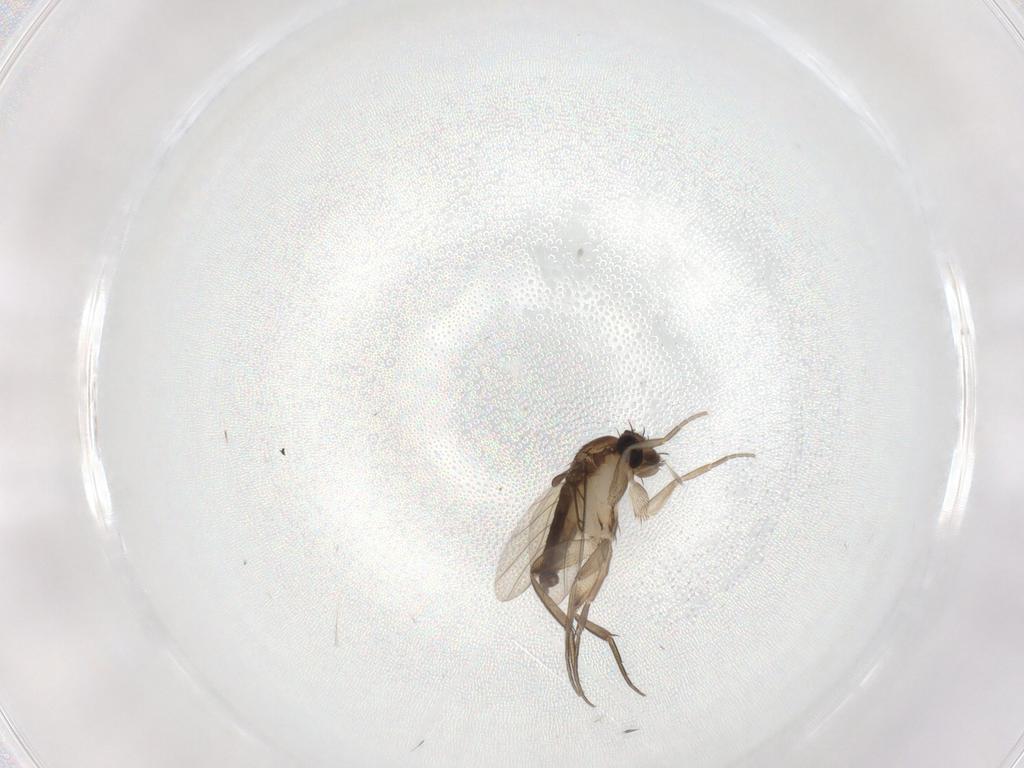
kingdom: Animalia
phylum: Arthropoda
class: Insecta
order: Diptera
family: Phoridae
